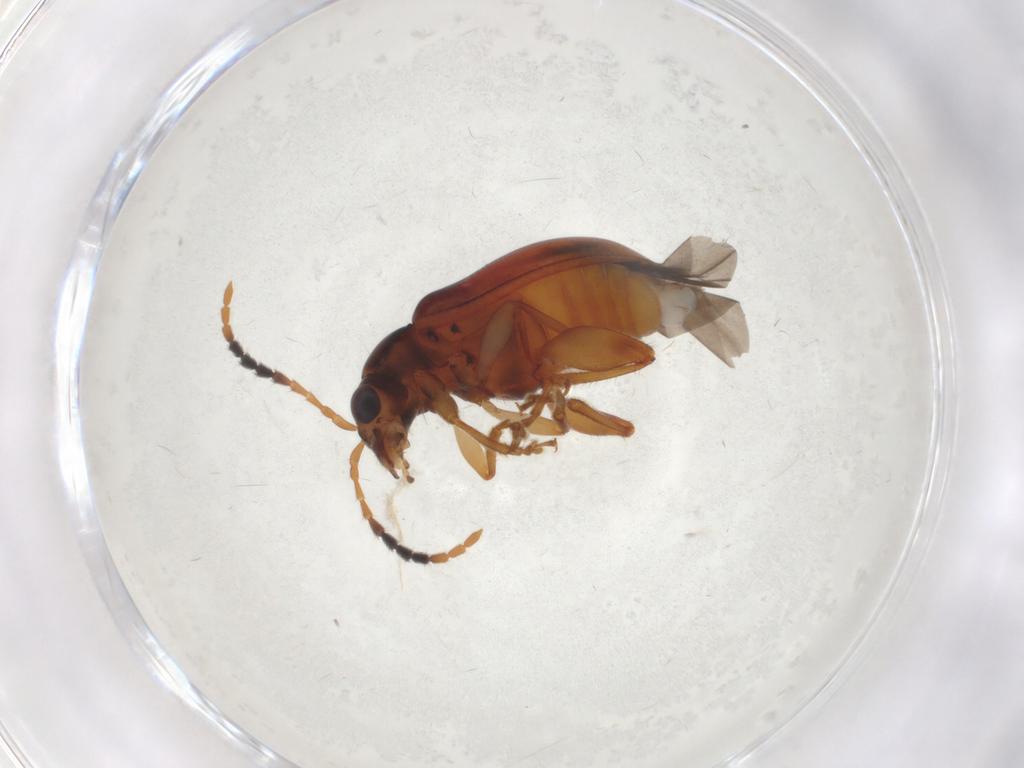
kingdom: Animalia
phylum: Arthropoda
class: Insecta
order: Coleoptera
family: Chrysomelidae
